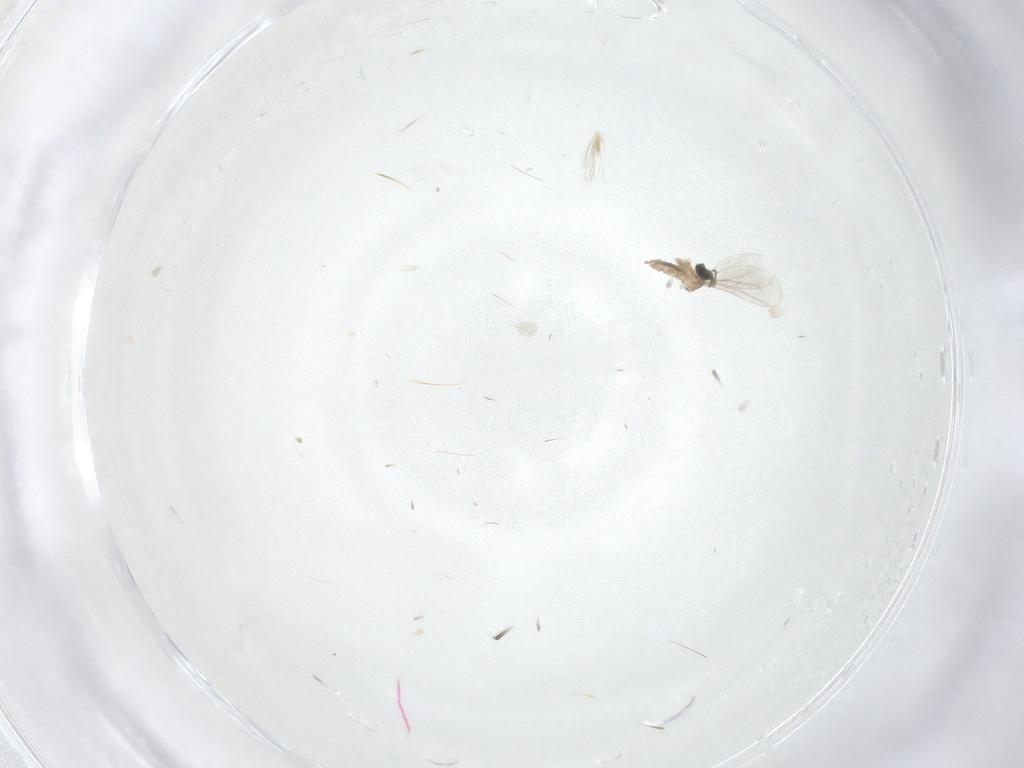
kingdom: Animalia
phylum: Arthropoda
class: Insecta
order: Diptera
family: Cecidomyiidae
